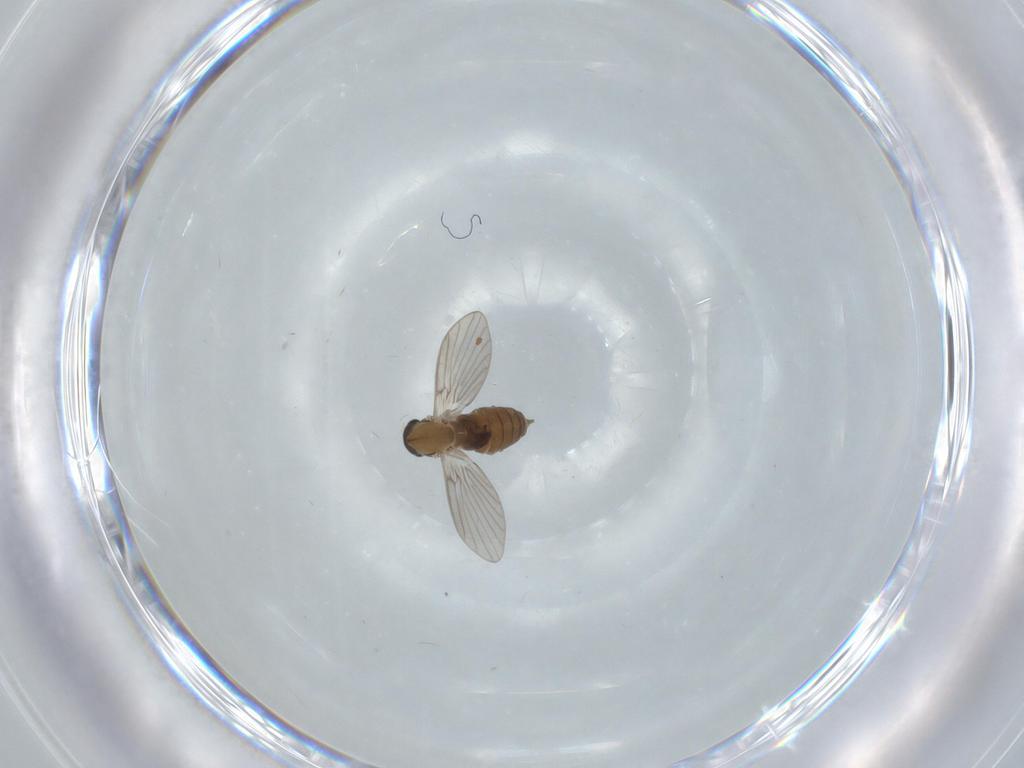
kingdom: Animalia
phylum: Arthropoda
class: Insecta
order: Diptera
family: Psychodidae
